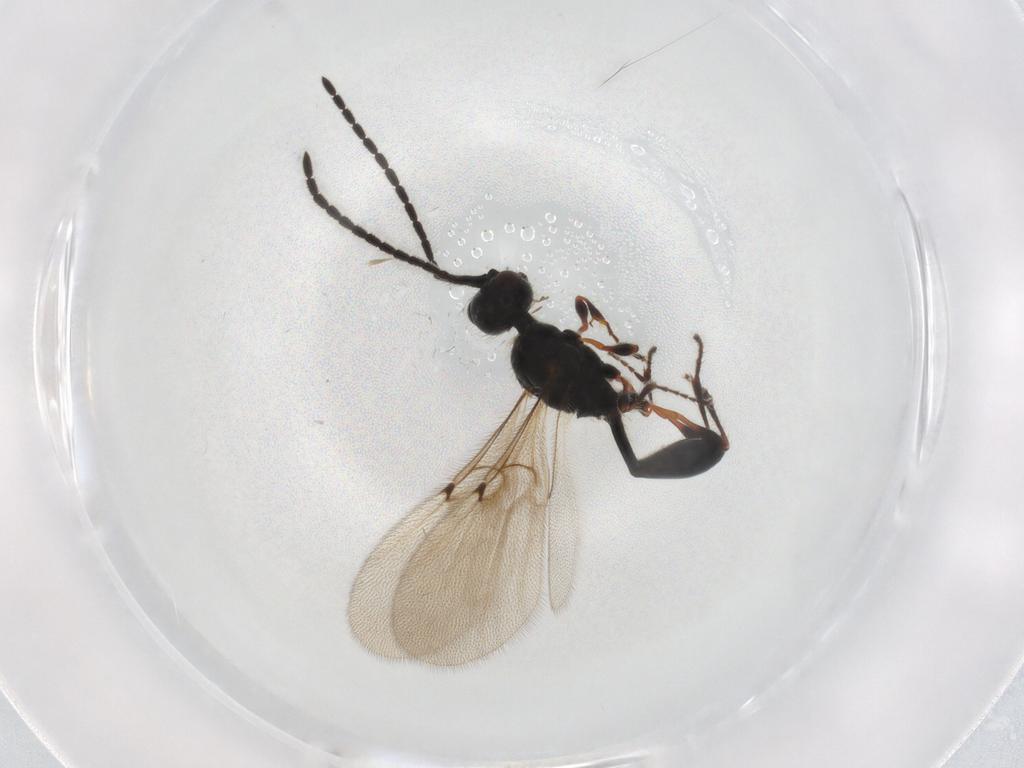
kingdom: Animalia
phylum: Arthropoda
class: Insecta
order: Hymenoptera
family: Diapriidae
